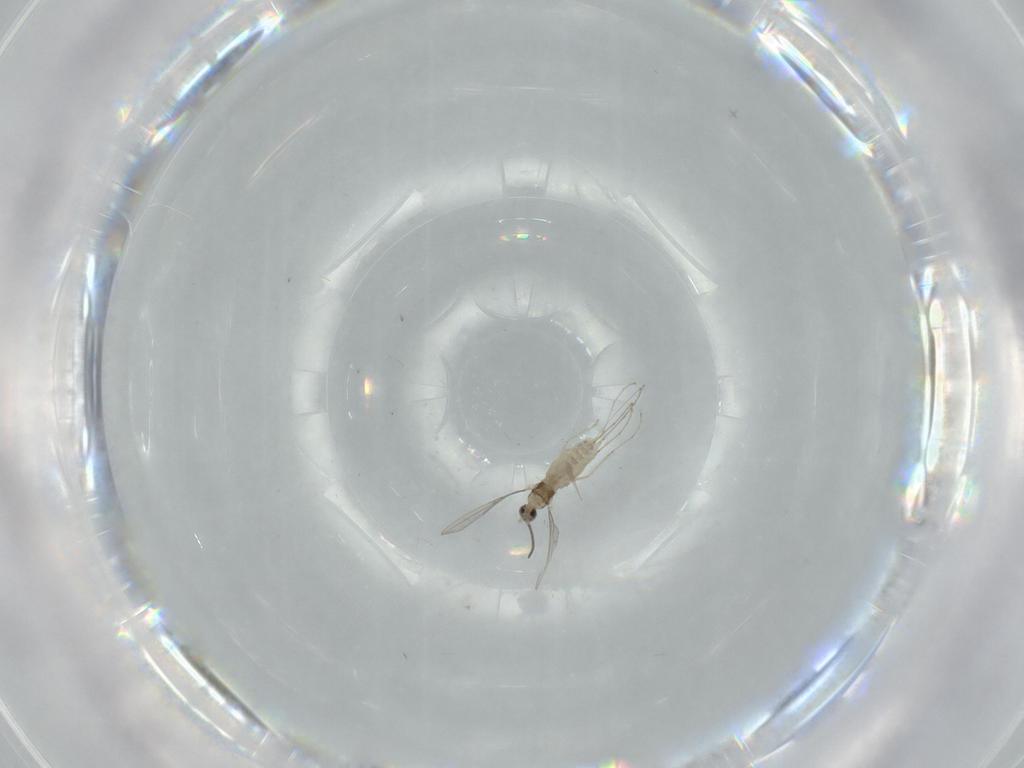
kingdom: Animalia
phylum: Arthropoda
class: Insecta
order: Diptera
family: Cecidomyiidae
